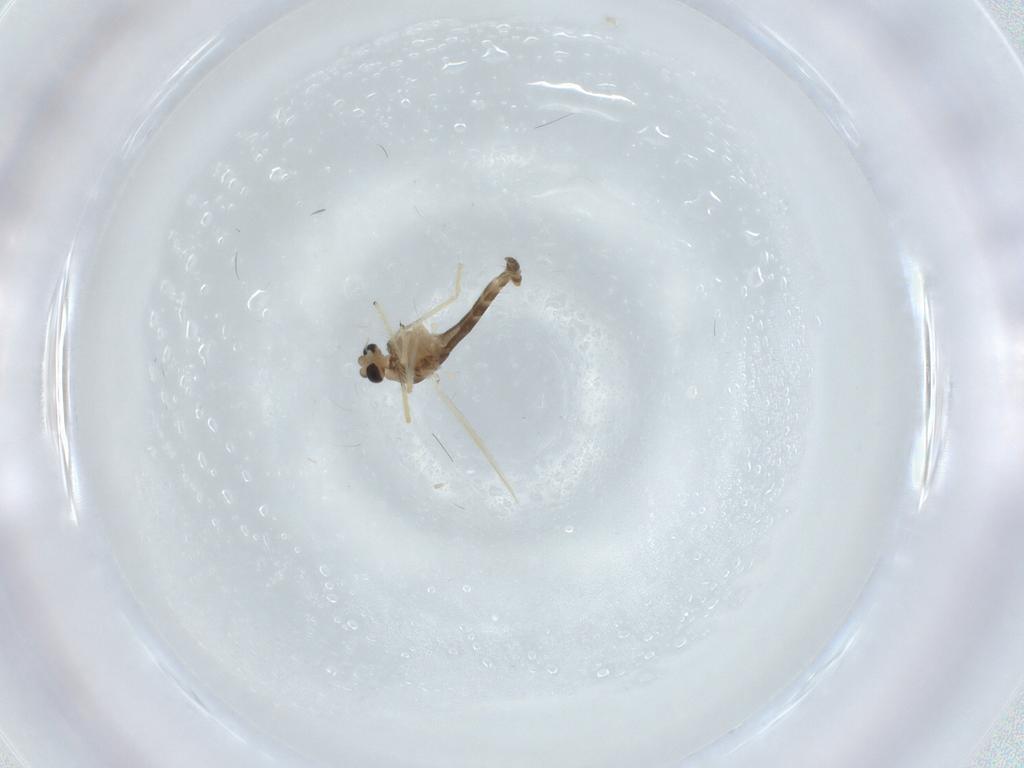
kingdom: Animalia
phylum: Arthropoda
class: Insecta
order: Diptera
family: Chironomidae
